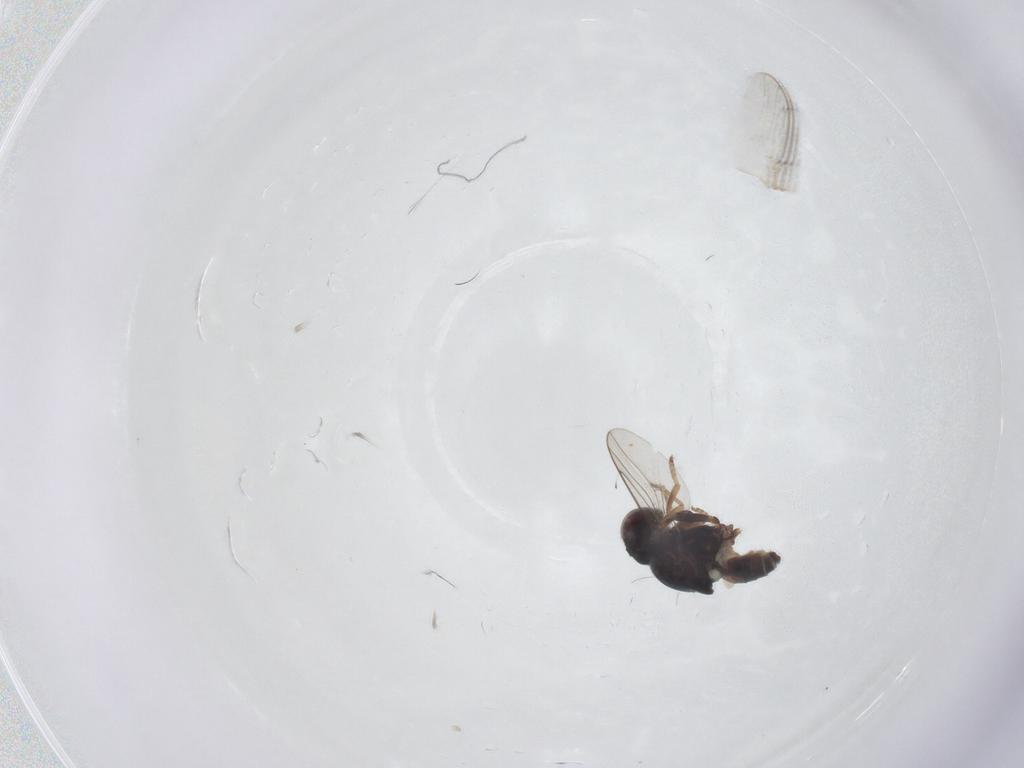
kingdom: Animalia
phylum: Arthropoda
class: Insecta
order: Diptera
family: Chloropidae
